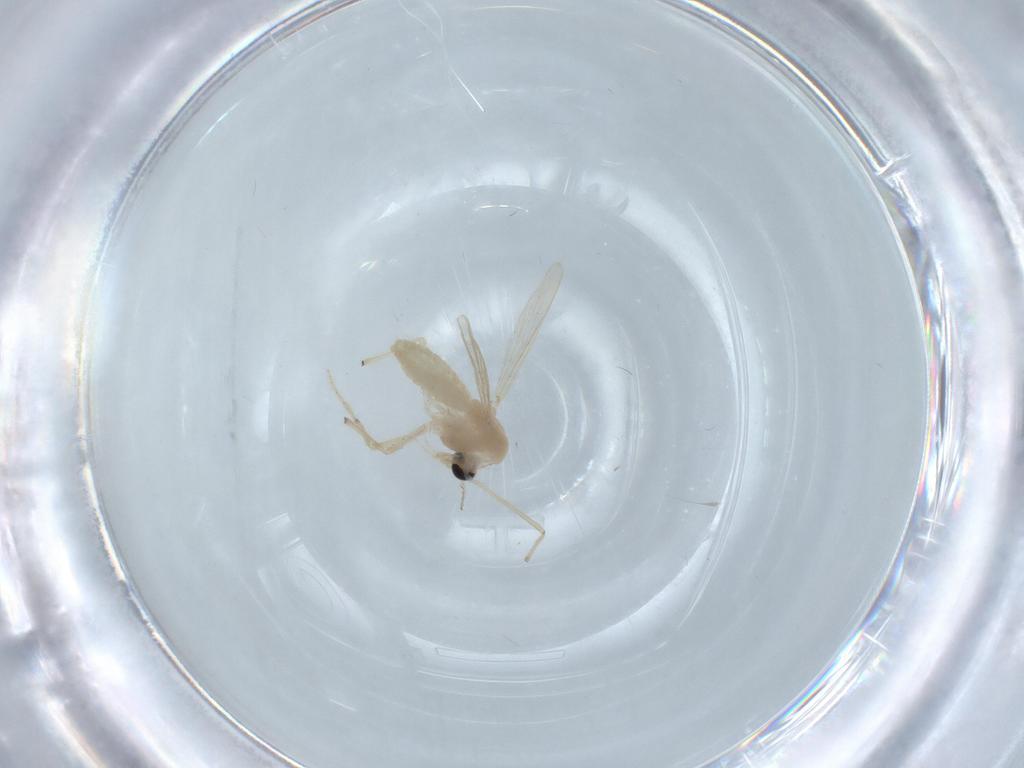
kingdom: Animalia
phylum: Arthropoda
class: Insecta
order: Diptera
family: Chironomidae
